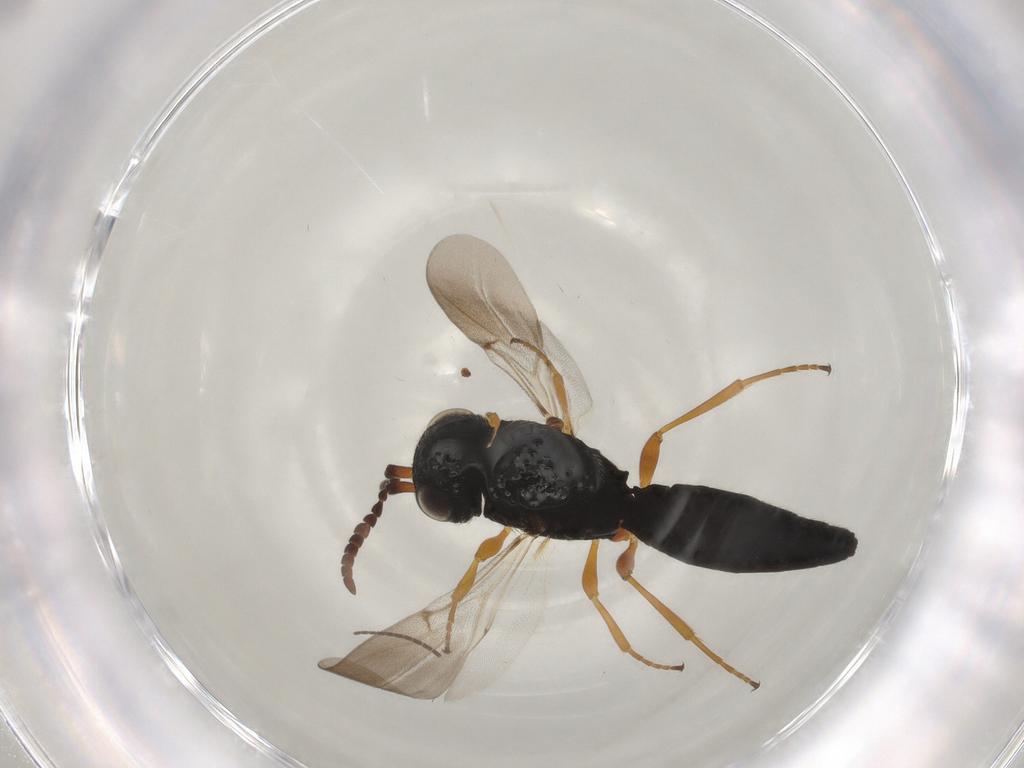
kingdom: Animalia
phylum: Arthropoda
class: Insecta
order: Hymenoptera
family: Scelionidae
